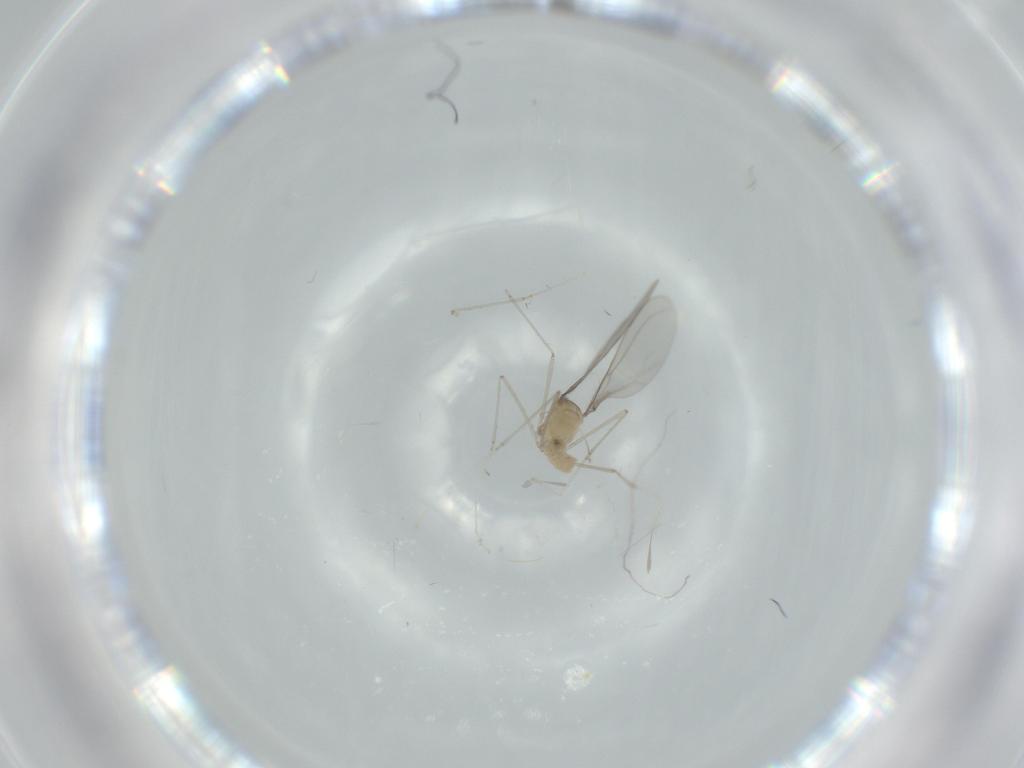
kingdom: Animalia
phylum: Arthropoda
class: Insecta
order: Diptera
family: Cecidomyiidae
